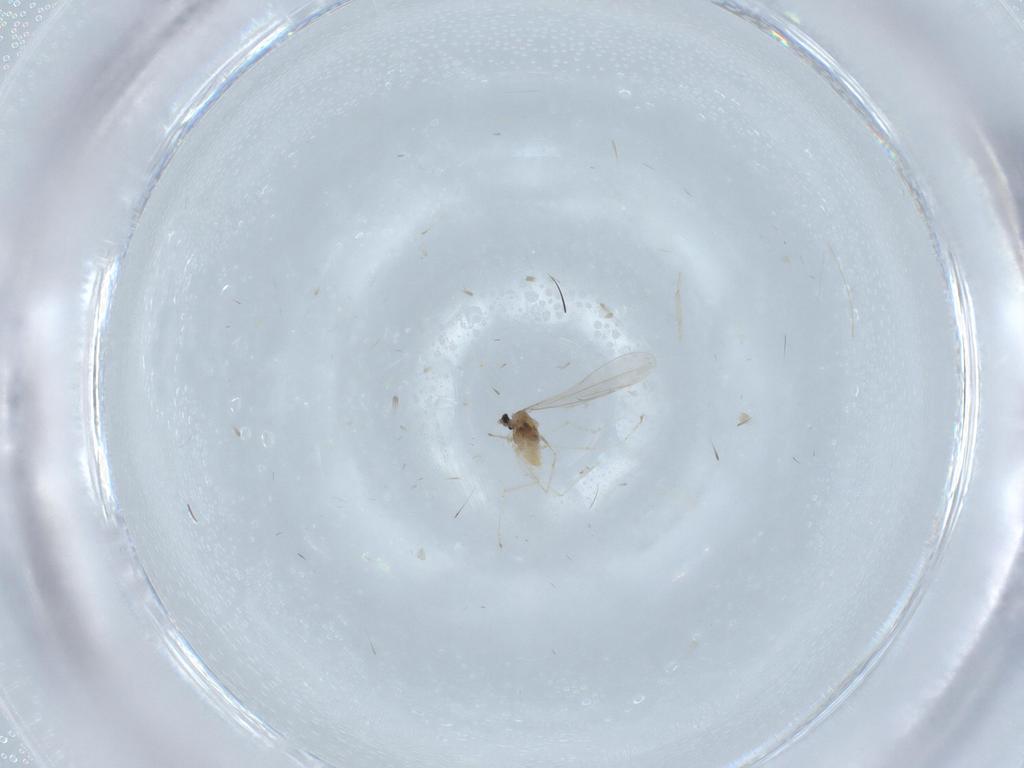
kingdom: Animalia
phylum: Arthropoda
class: Insecta
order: Diptera
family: Cecidomyiidae
